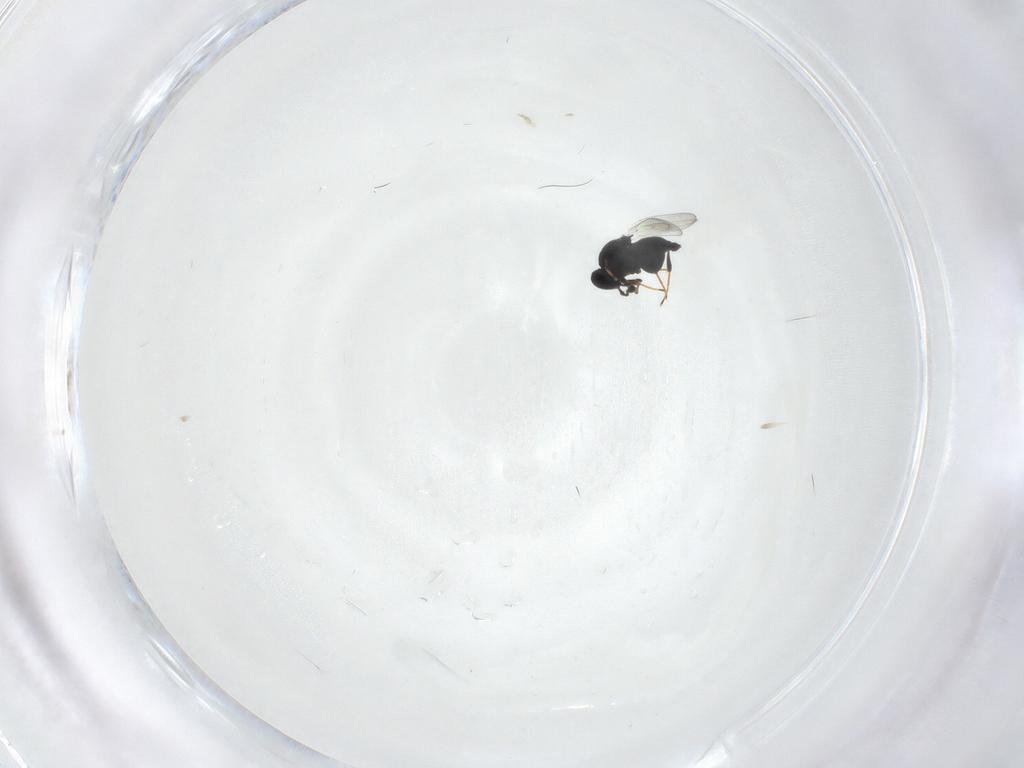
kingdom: Animalia
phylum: Arthropoda
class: Insecta
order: Hymenoptera
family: Platygastridae
